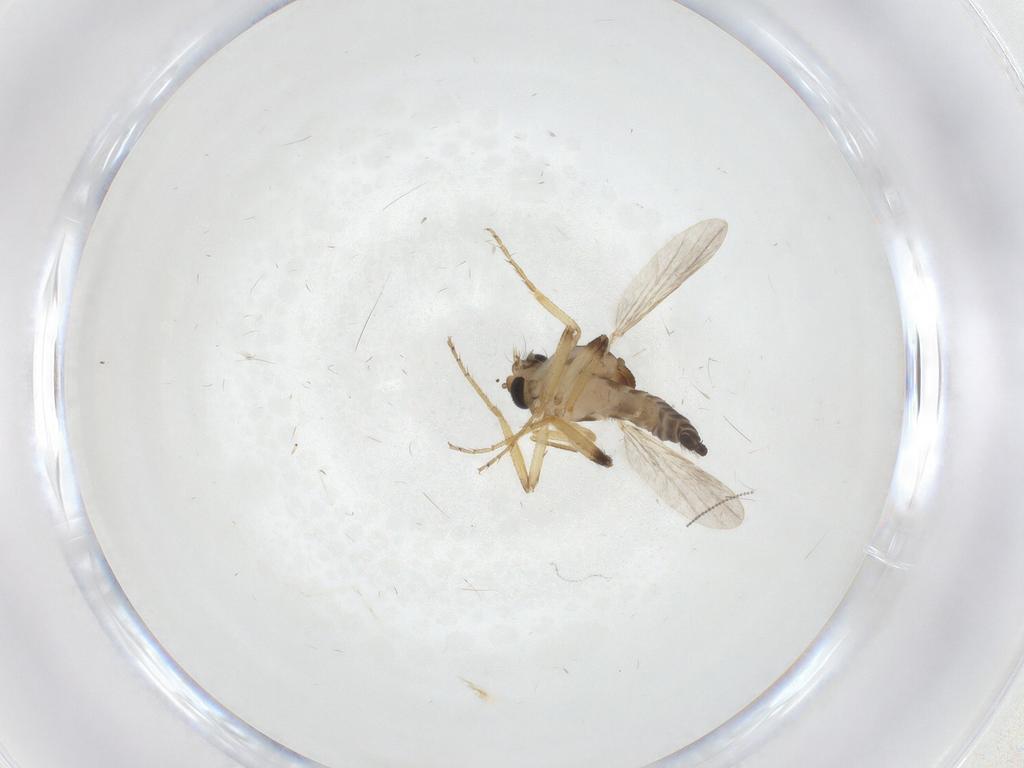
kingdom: Animalia
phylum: Arthropoda
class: Insecta
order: Diptera
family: Ceratopogonidae
